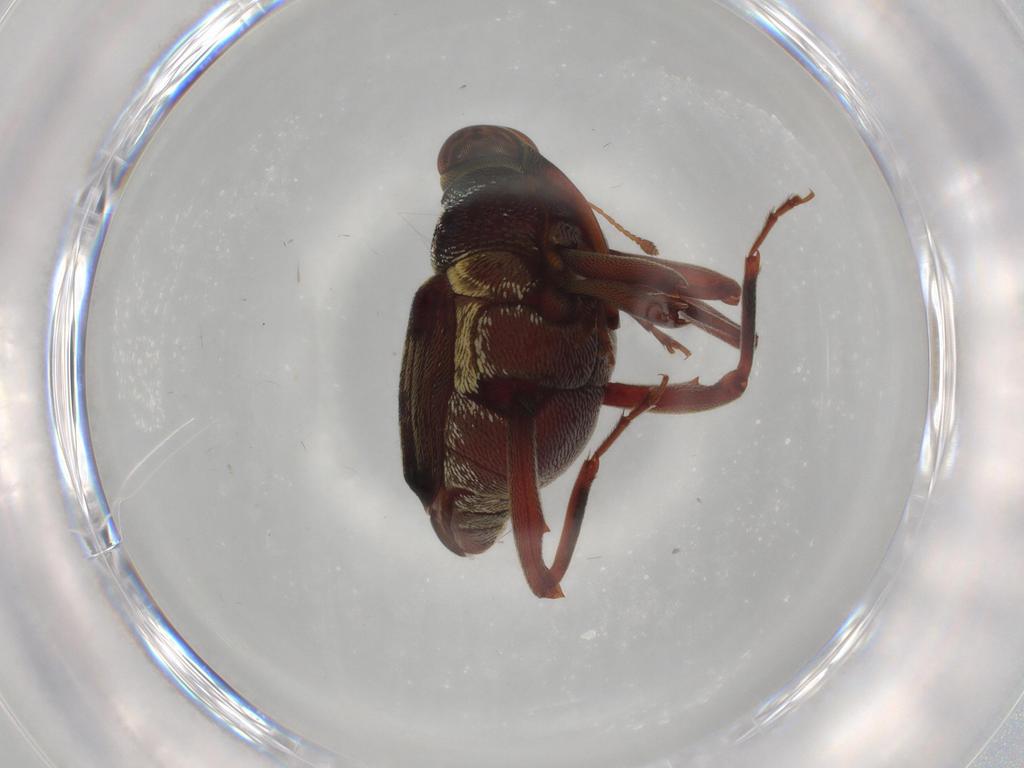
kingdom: Animalia
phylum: Arthropoda
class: Insecta
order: Coleoptera
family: Curculionidae
